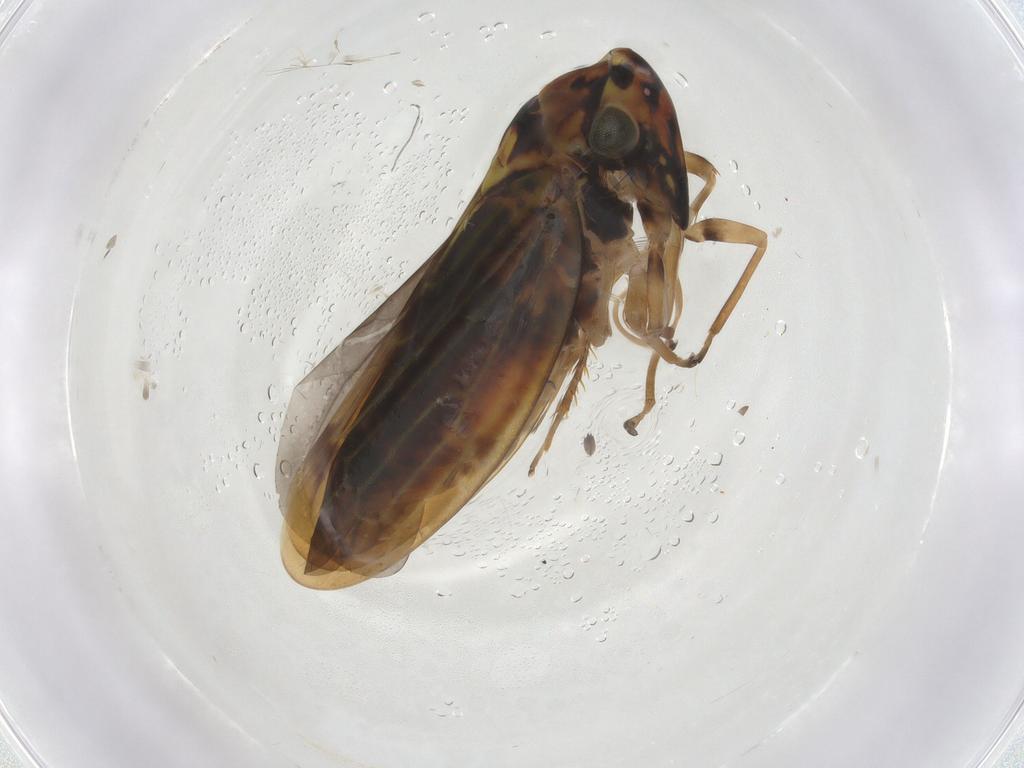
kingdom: Animalia
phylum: Arthropoda
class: Insecta
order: Hemiptera
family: Cicadellidae
